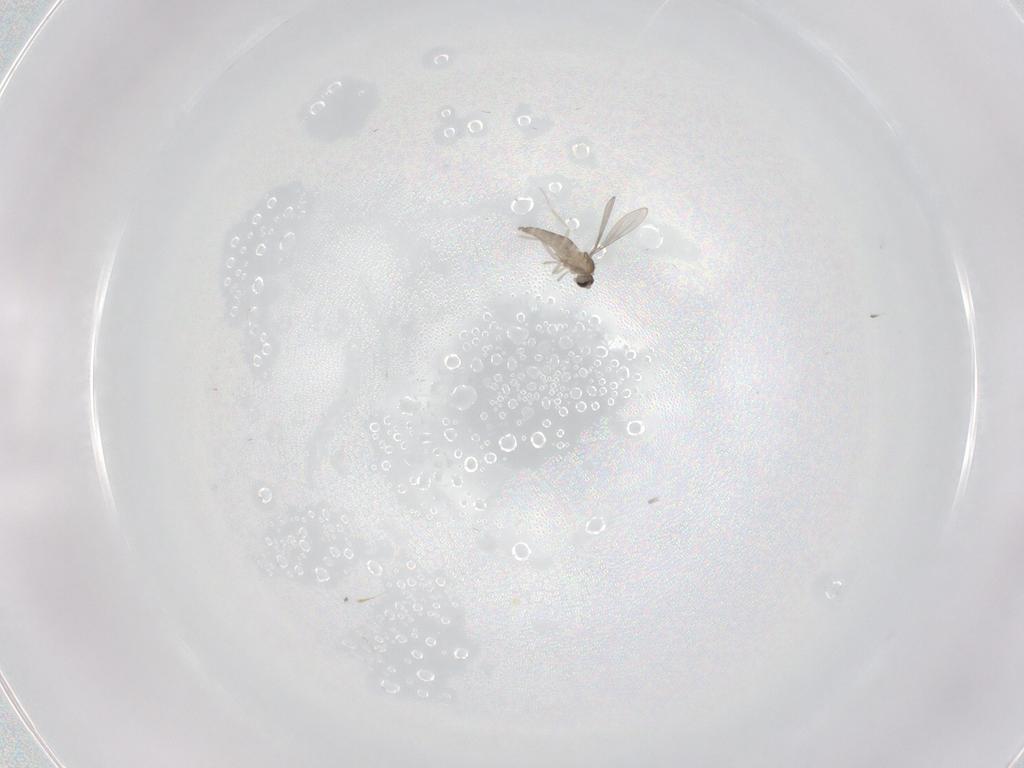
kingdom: Animalia
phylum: Arthropoda
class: Insecta
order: Diptera
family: Cecidomyiidae
